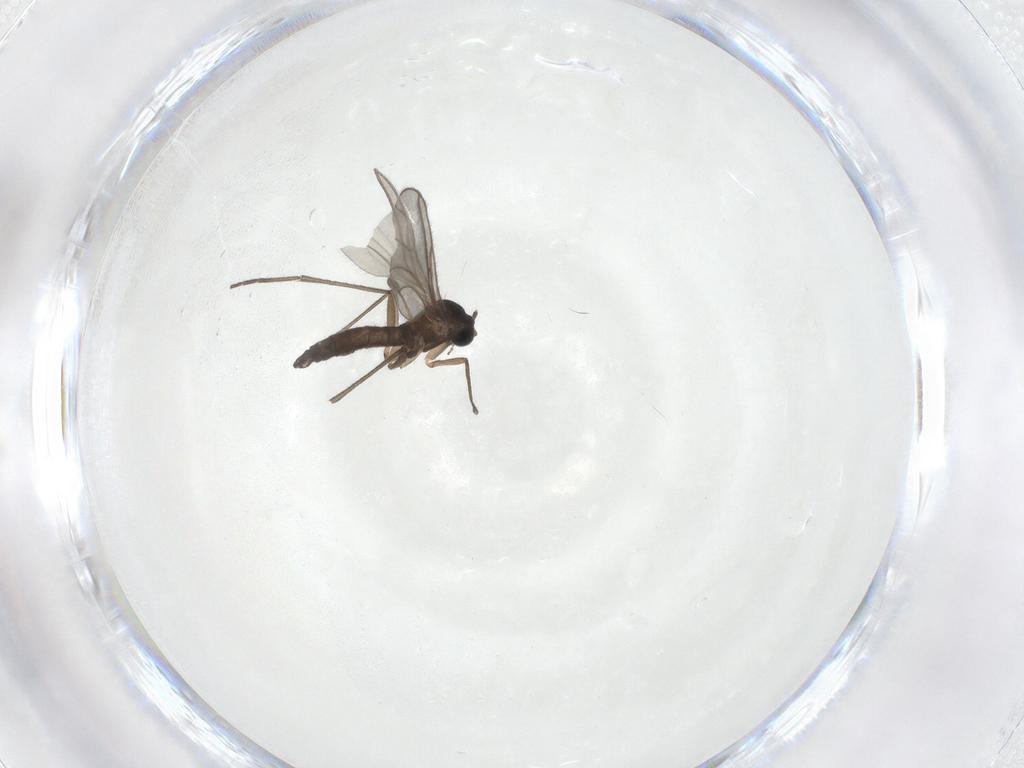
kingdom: Animalia
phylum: Arthropoda
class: Insecta
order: Diptera
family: Sciaridae
